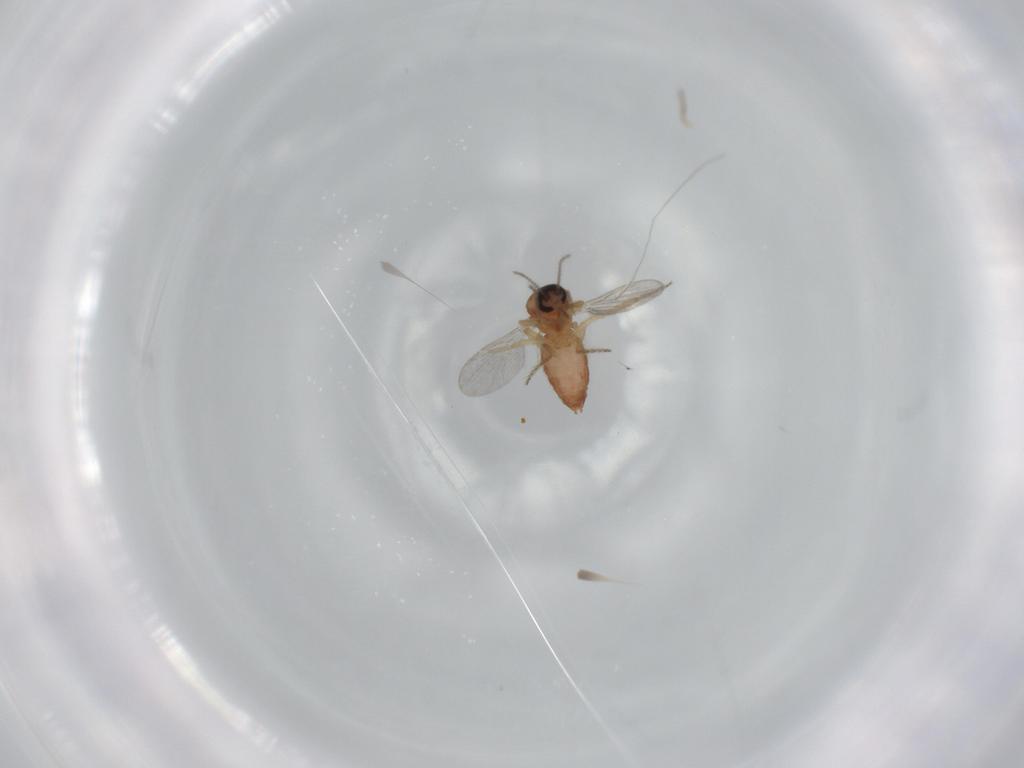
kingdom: Animalia
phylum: Arthropoda
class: Insecta
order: Diptera
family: Ceratopogonidae
